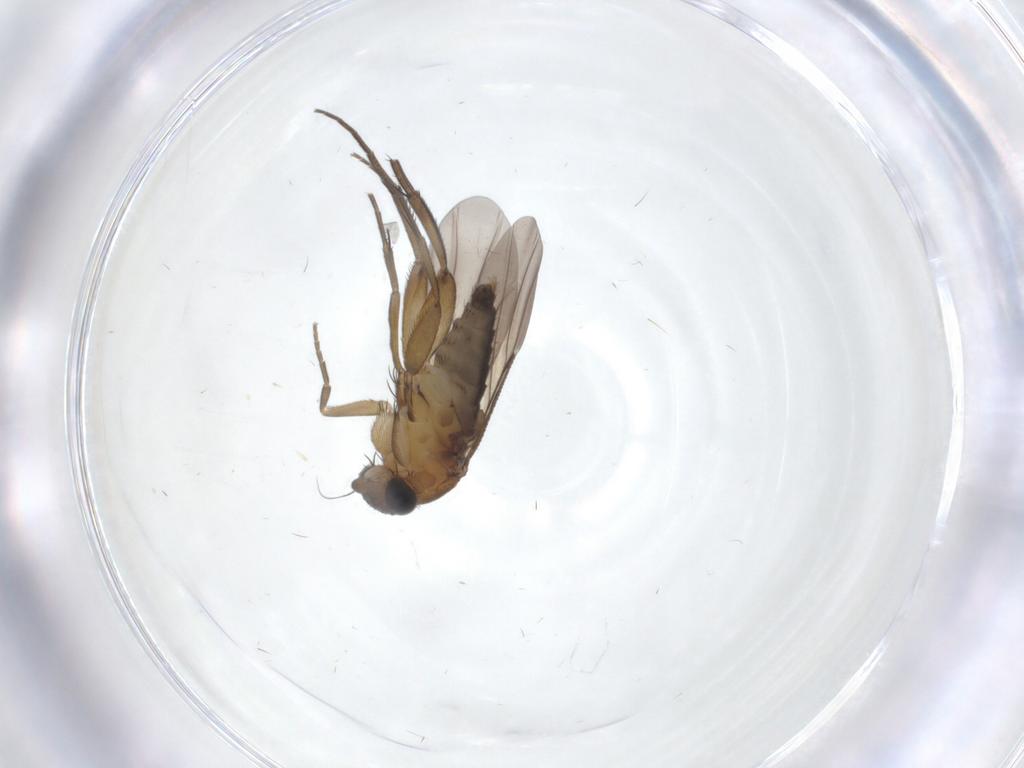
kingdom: Animalia
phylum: Arthropoda
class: Insecta
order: Diptera
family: Phoridae
